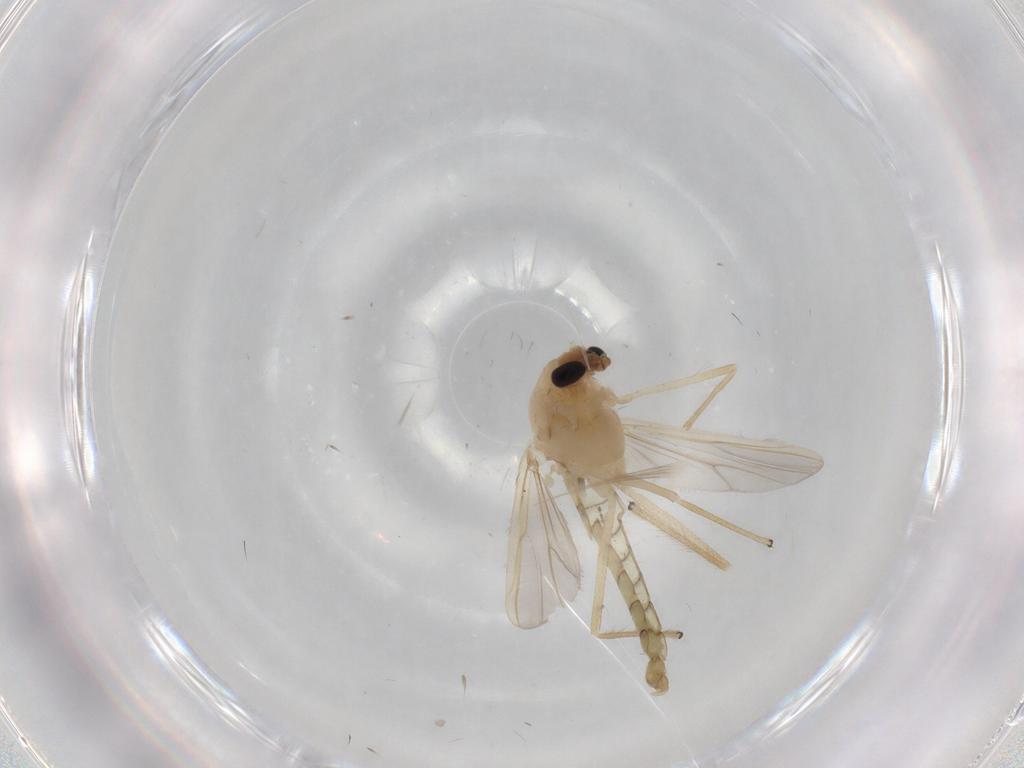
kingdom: Animalia
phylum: Arthropoda
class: Insecta
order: Diptera
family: Chironomidae
